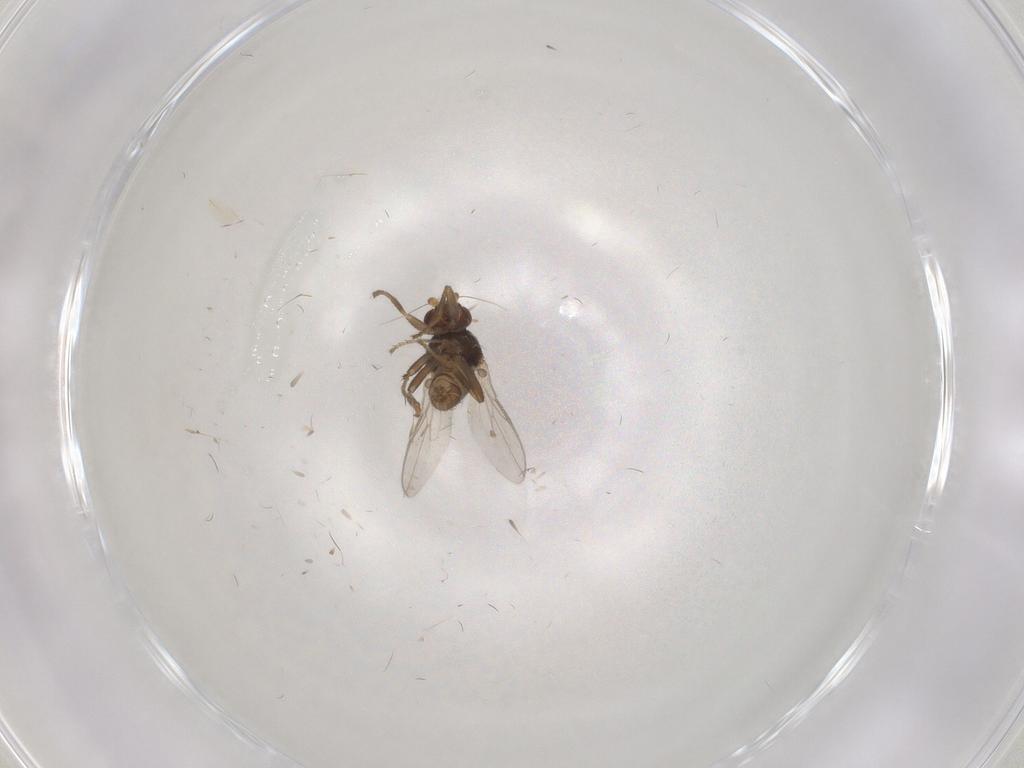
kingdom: Animalia
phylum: Arthropoda
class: Insecta
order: Diptera
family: Sphaeroceridae
